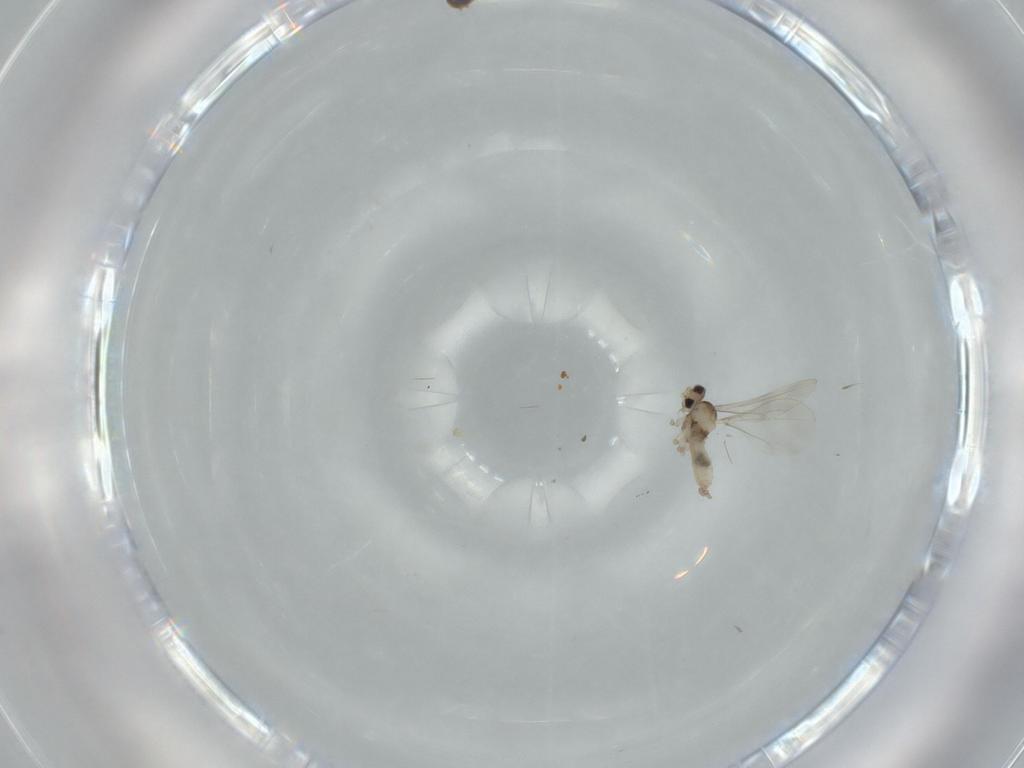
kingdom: Animalia
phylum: Arthropoda
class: Insecta
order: Diptera
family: Cecidomyiidae
